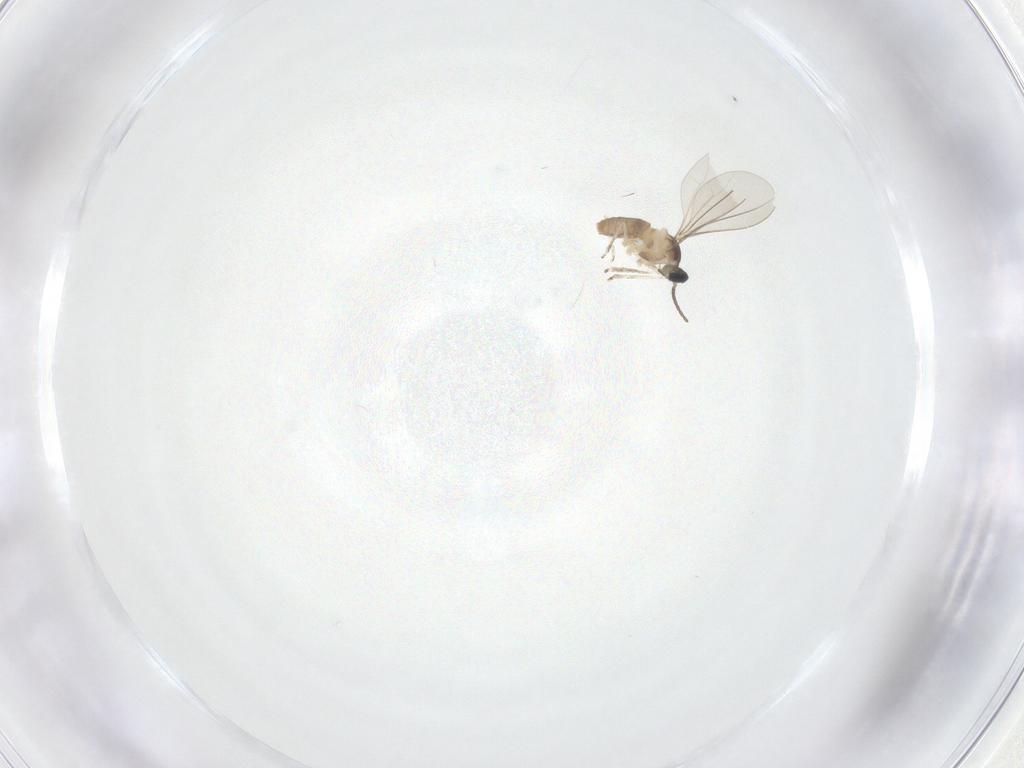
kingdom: Animalia
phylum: Arthropoda
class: Insecta
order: Diptera
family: Cecidomyiidae
